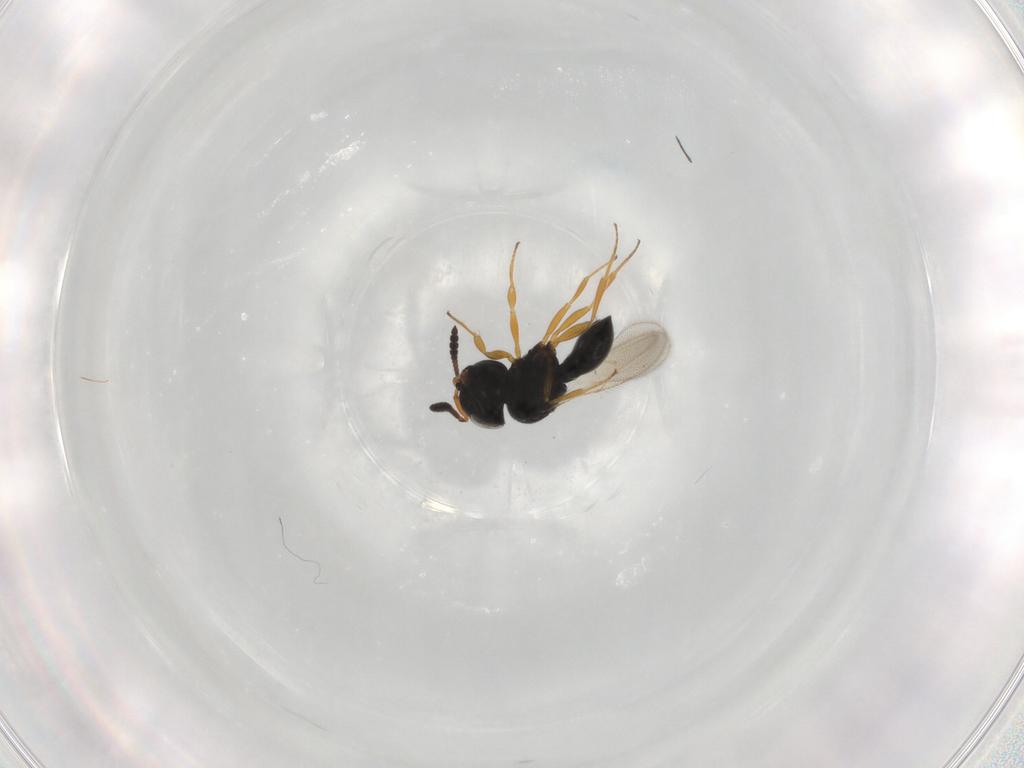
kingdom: Animalia
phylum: Arthropoda
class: Insecta
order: Hymenoptera
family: Scelionidae
